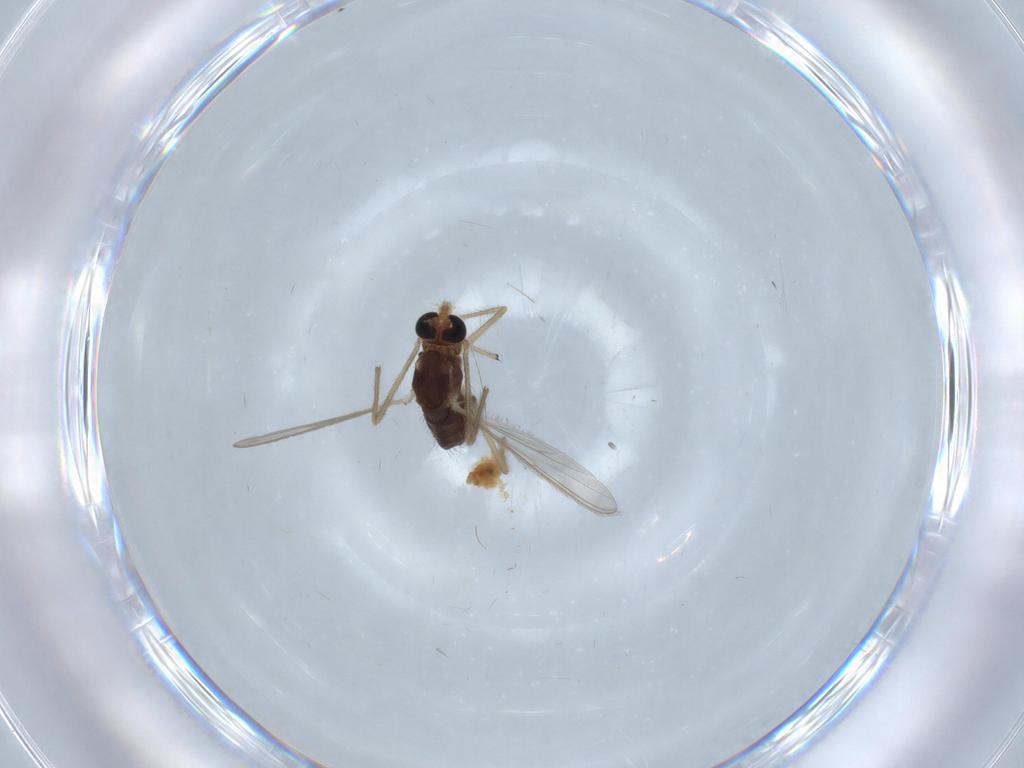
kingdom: Animalia
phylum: Arthropoda
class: Insecta
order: Diptera
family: Chironomidae
